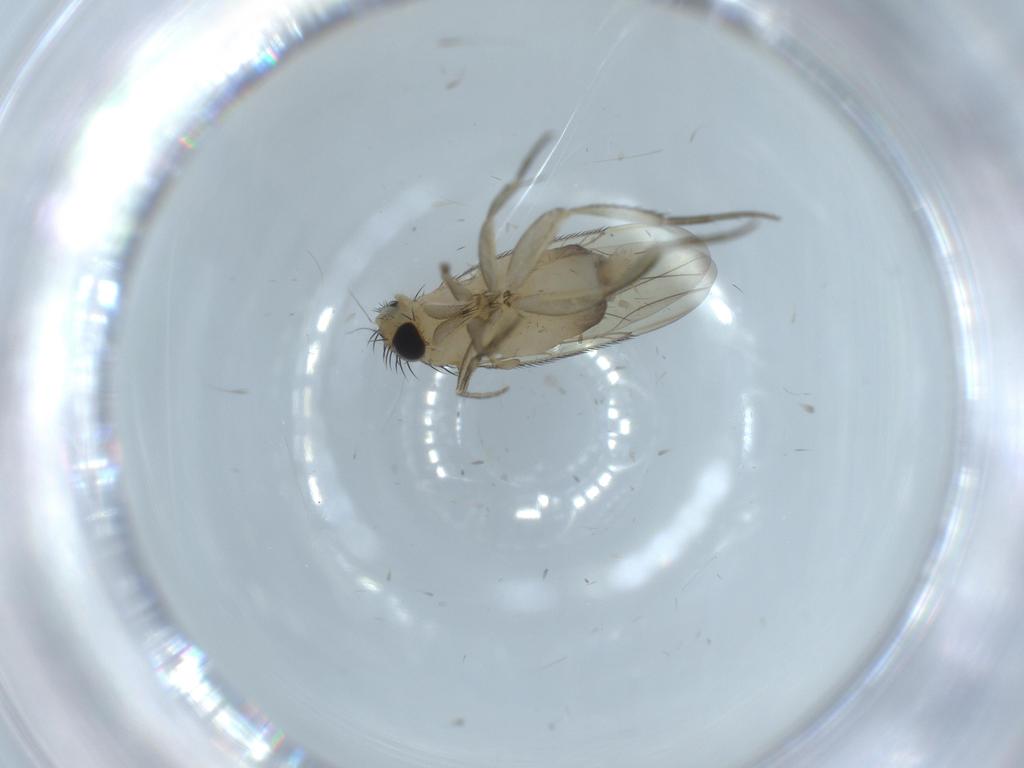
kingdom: Animalia
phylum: Arthropoda
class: Insecta
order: Diptera
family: Phoridae
